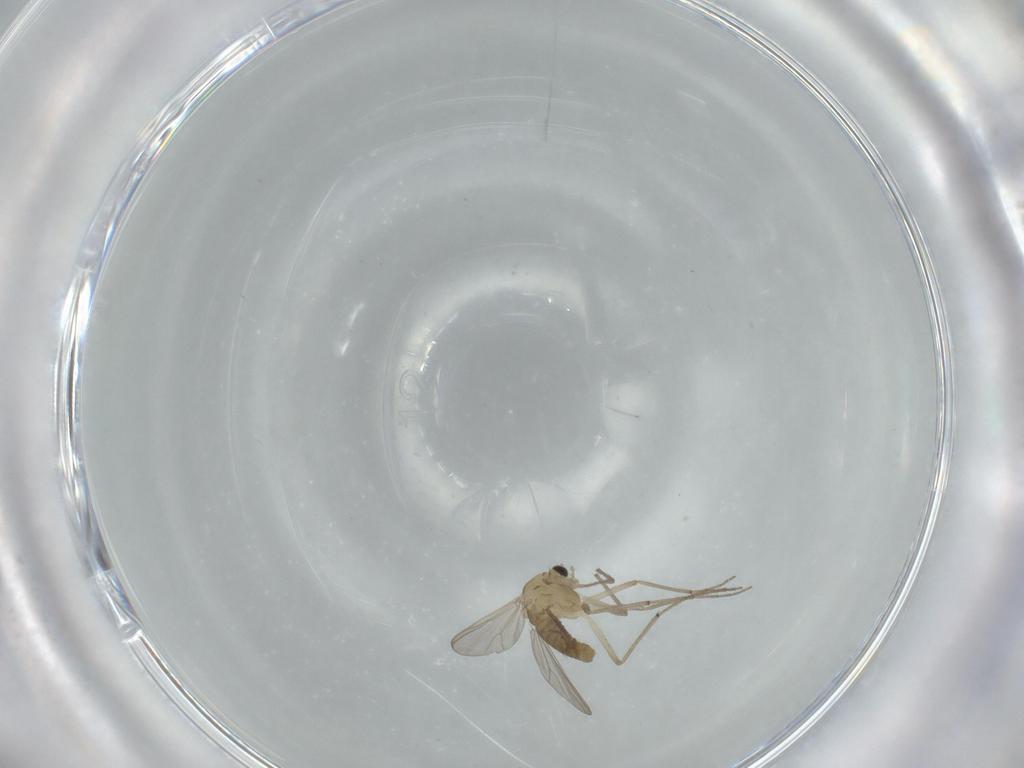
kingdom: Animalia
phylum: Arthropoda
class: Insecta
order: Diptera
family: Chironomidae
